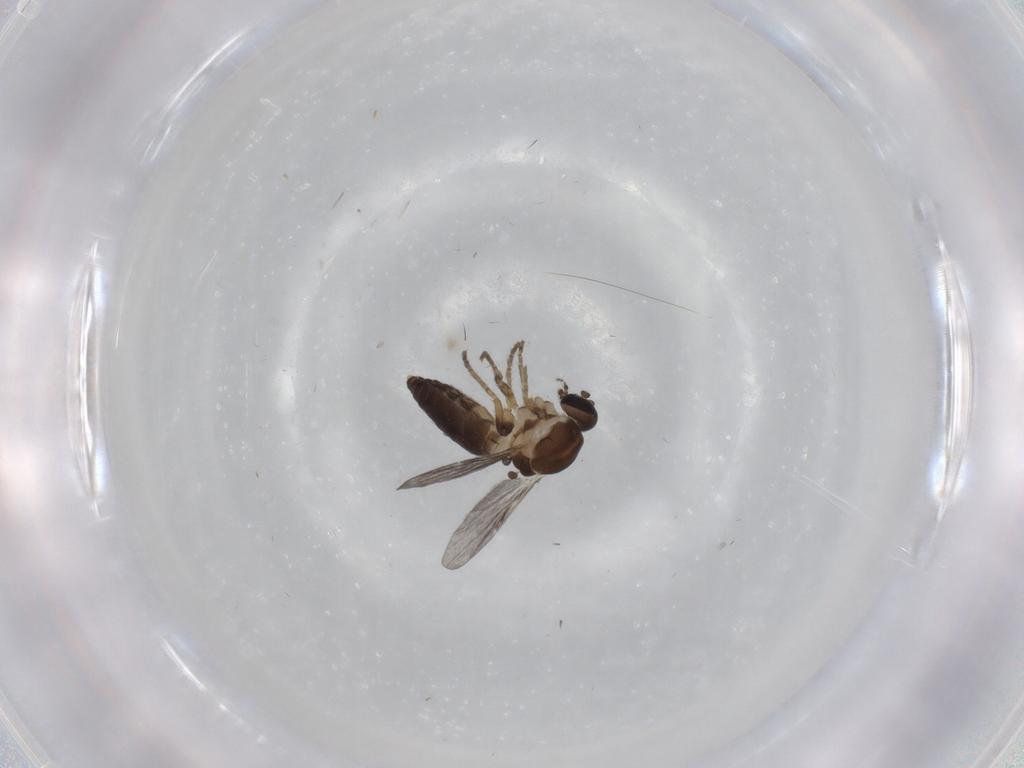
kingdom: Animalia
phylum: Arthropoda
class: Insecta
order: Diptera
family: Ceratopogonidae
